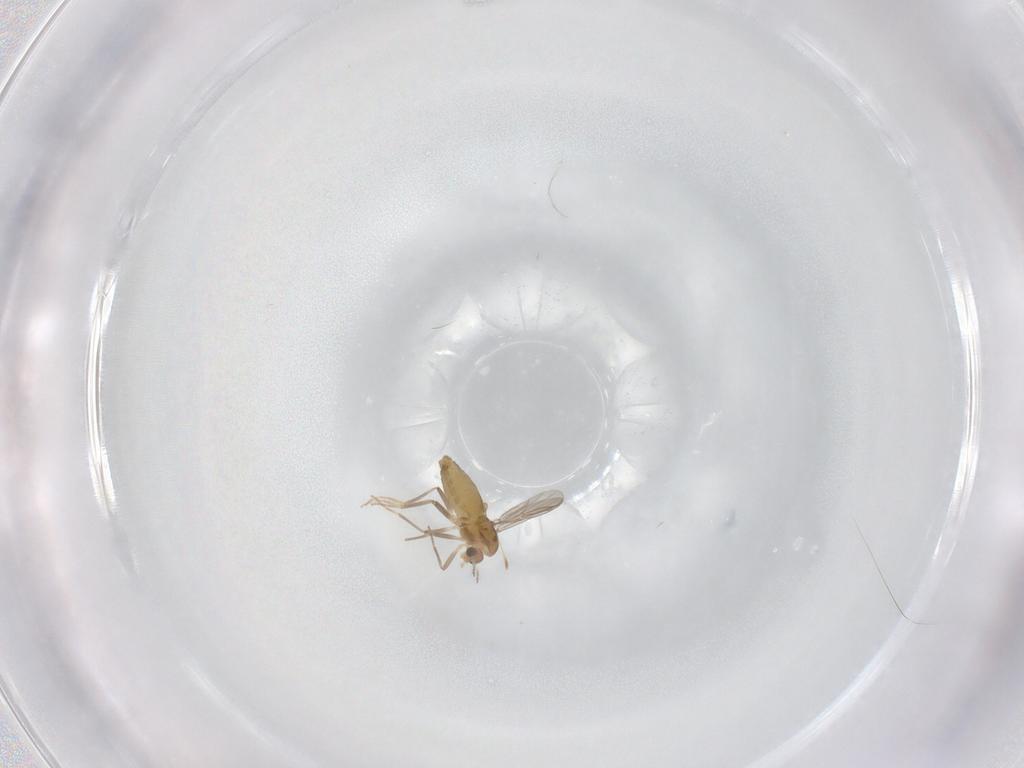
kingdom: Animalia
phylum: Arthropoda
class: Insecta
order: Diptera
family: Chironomidae
